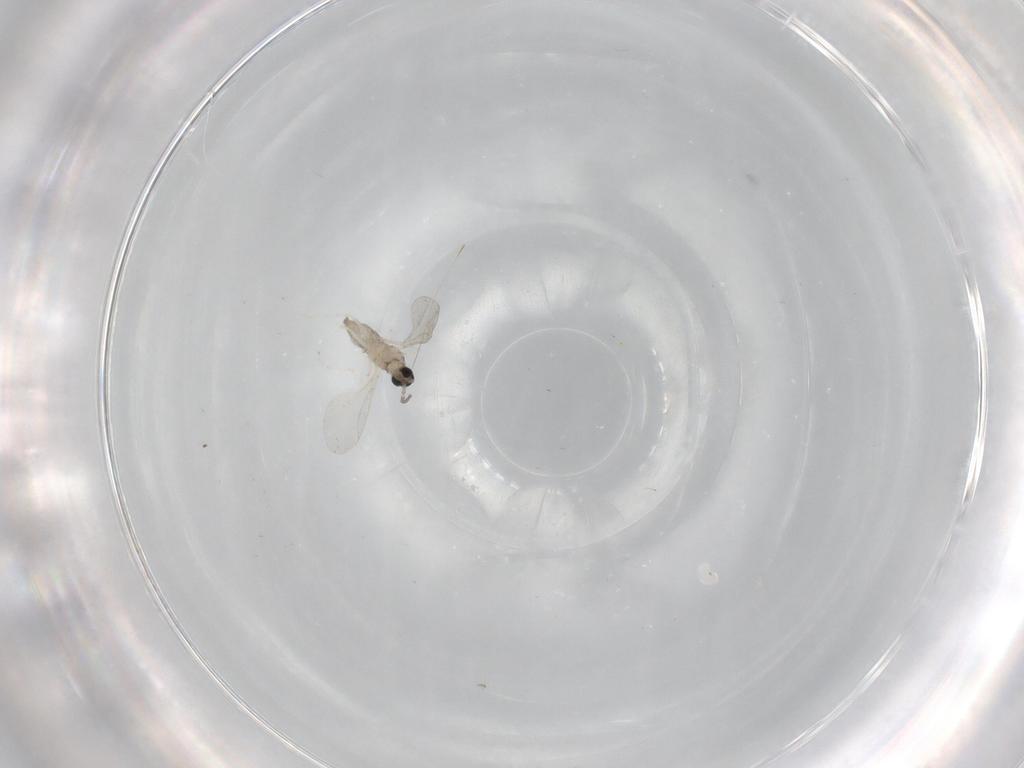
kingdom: Animalia
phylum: Arthropoda
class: Insecta
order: Diptera
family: Cecidomyiidae
